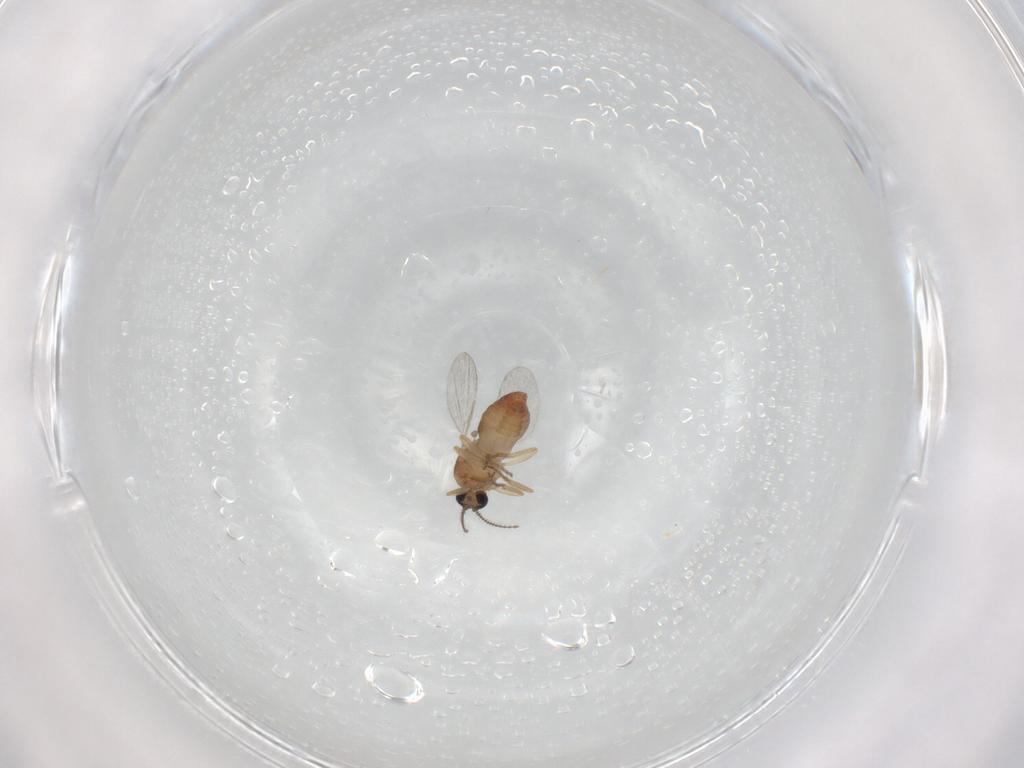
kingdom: Animalia
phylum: Arthropoda
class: Insecta
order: Diptera
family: Ceratopogonidae
